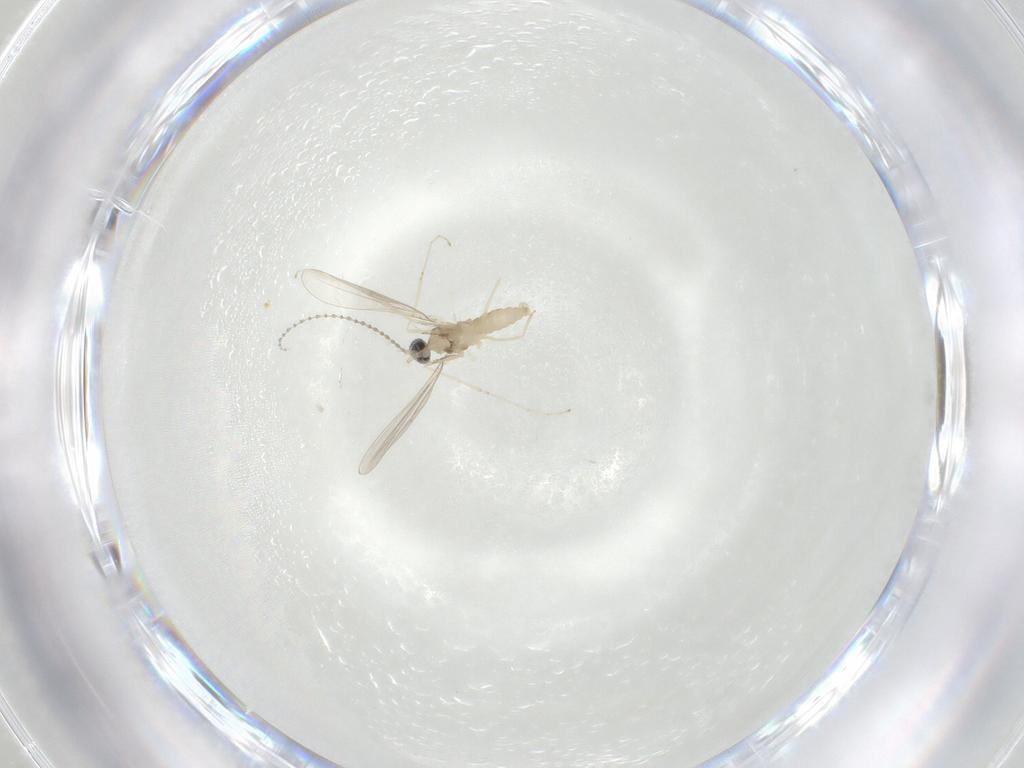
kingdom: Animalia
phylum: Arthropoda
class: Insecta
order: Diptera
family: Cecidomyiidae
